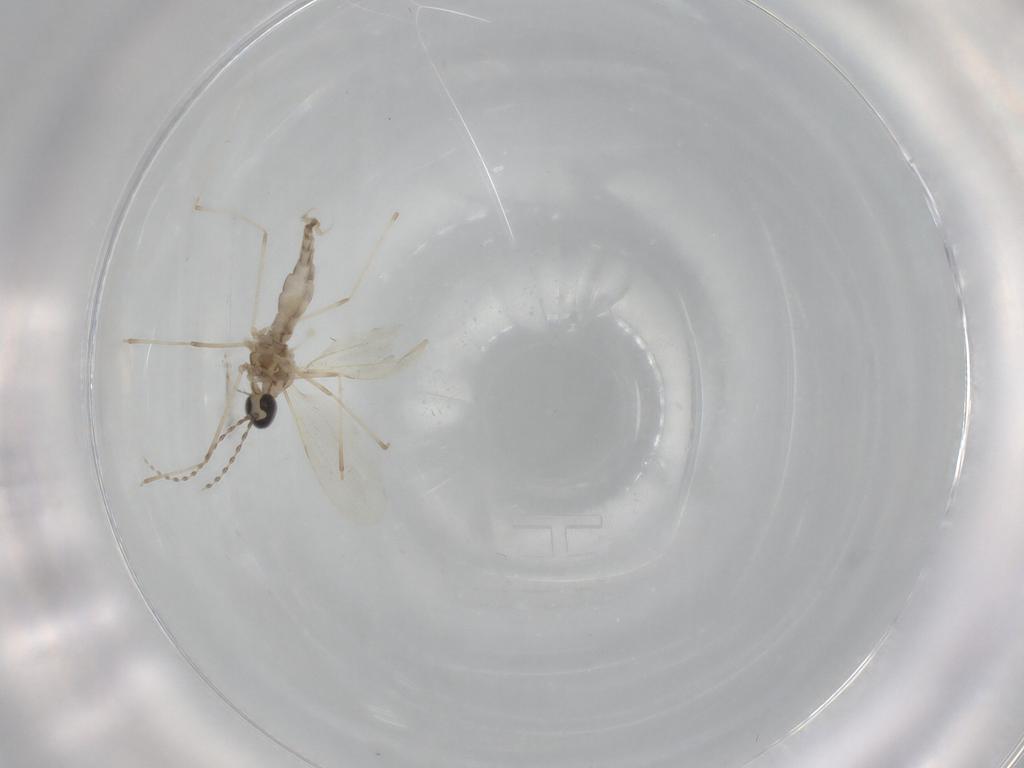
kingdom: Animalia
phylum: Arthropoda
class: Insecta
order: Diptera
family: Cecidomyiidae
